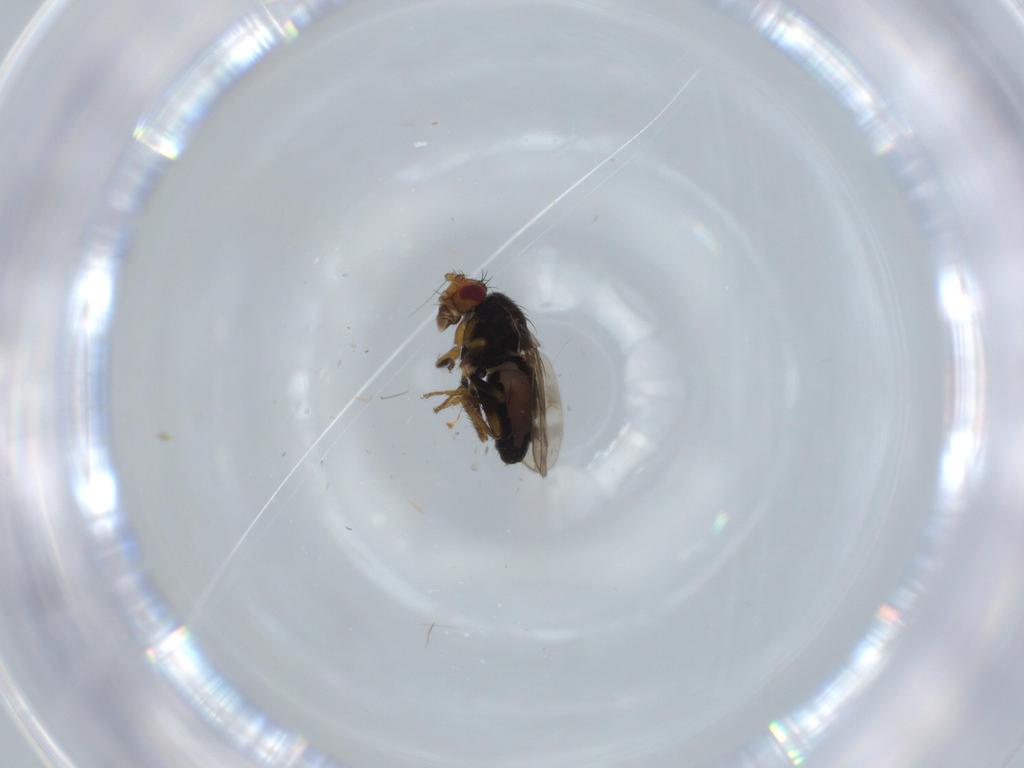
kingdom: Animalia
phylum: Arthropoda
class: Insecta
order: Diptera
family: Sphaeroceridae
